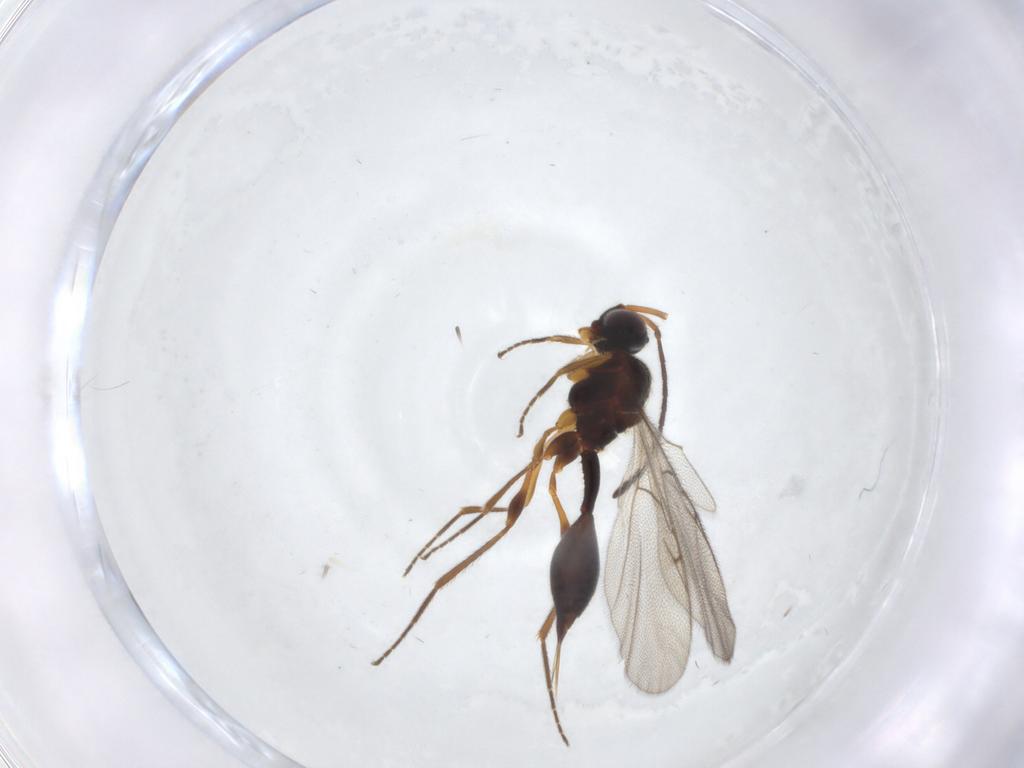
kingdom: Animalia
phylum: Arthropoda
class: Insecta
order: Hymenoptera
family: Diapriidae
